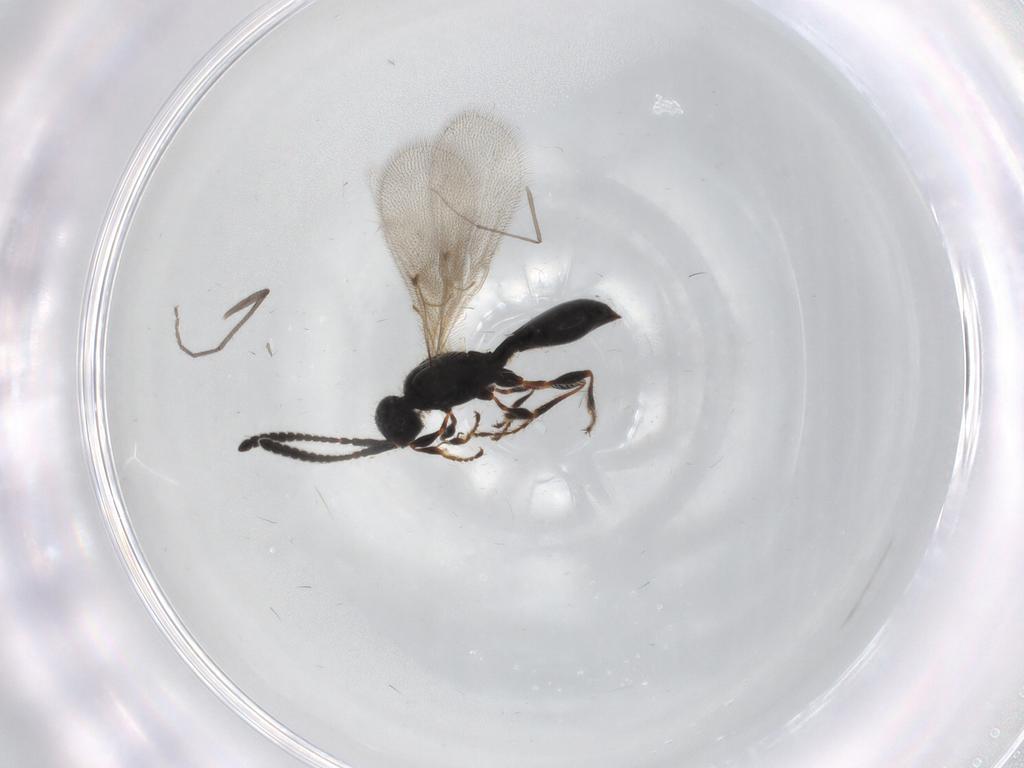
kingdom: Animalia
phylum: Arthropoda
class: Insecta
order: Hymenoptera
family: Diapriidae
